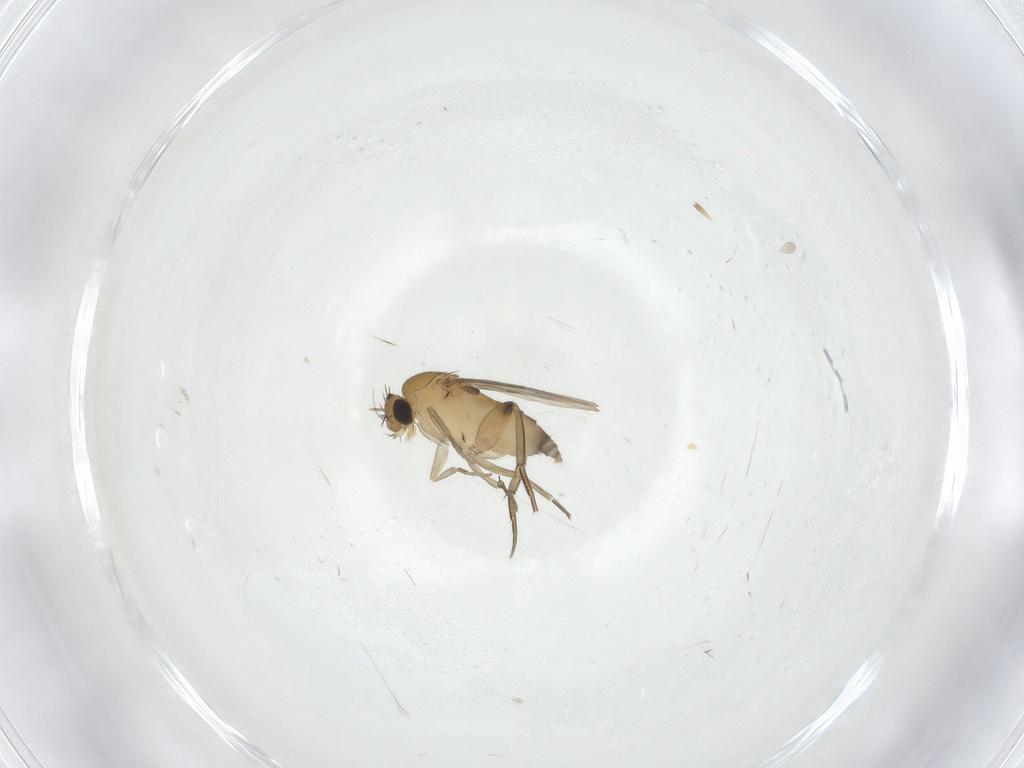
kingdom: Animalia
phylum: Arthropoda
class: Insecta
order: Diptera
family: Phoridae
